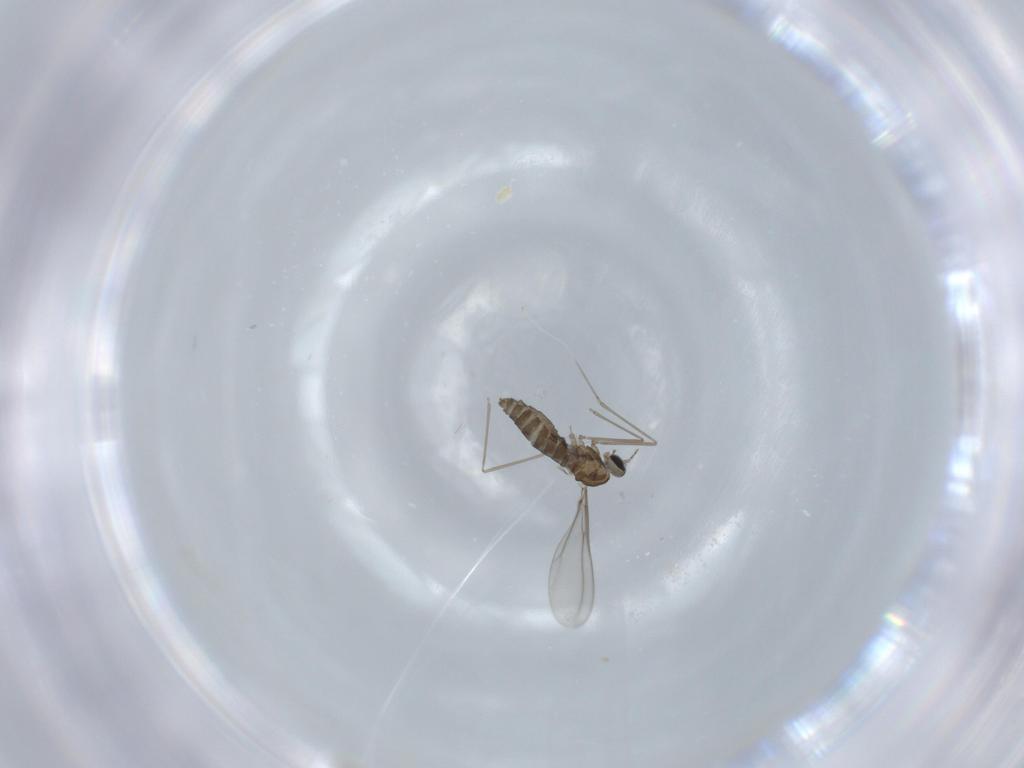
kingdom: Animalia
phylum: Arthropoda
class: Insecta
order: Diptera
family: Cecidomyiidae
